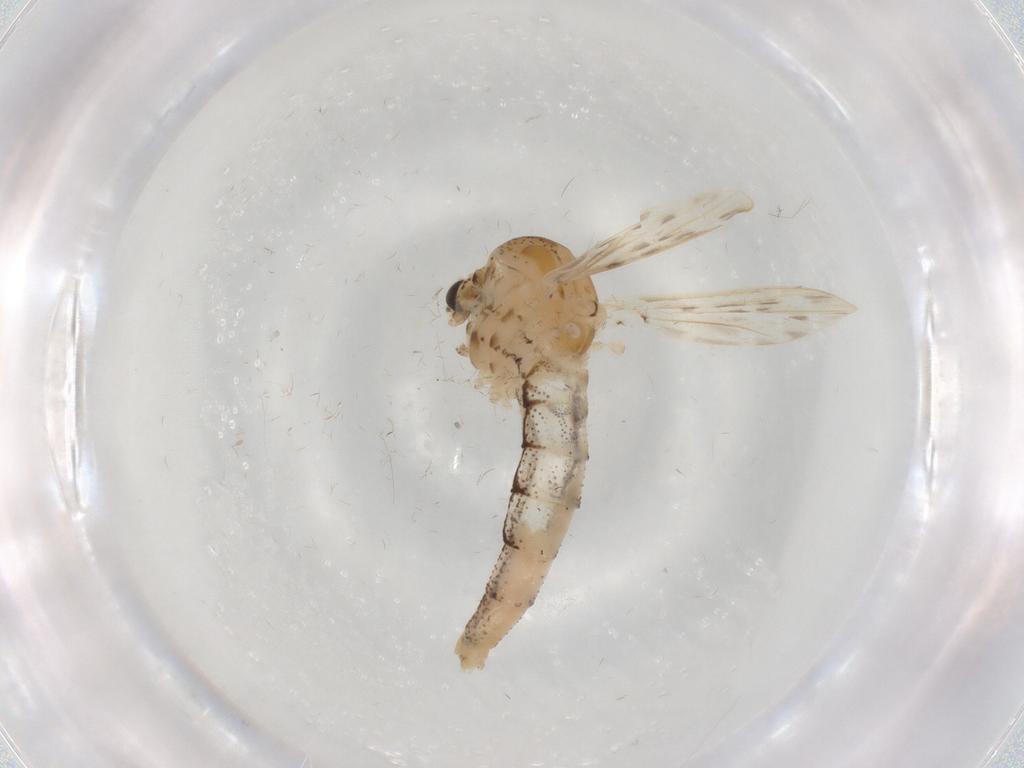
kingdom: Animalia
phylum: Arthropoda
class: Insecta
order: Diptera
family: Chaoboridae
